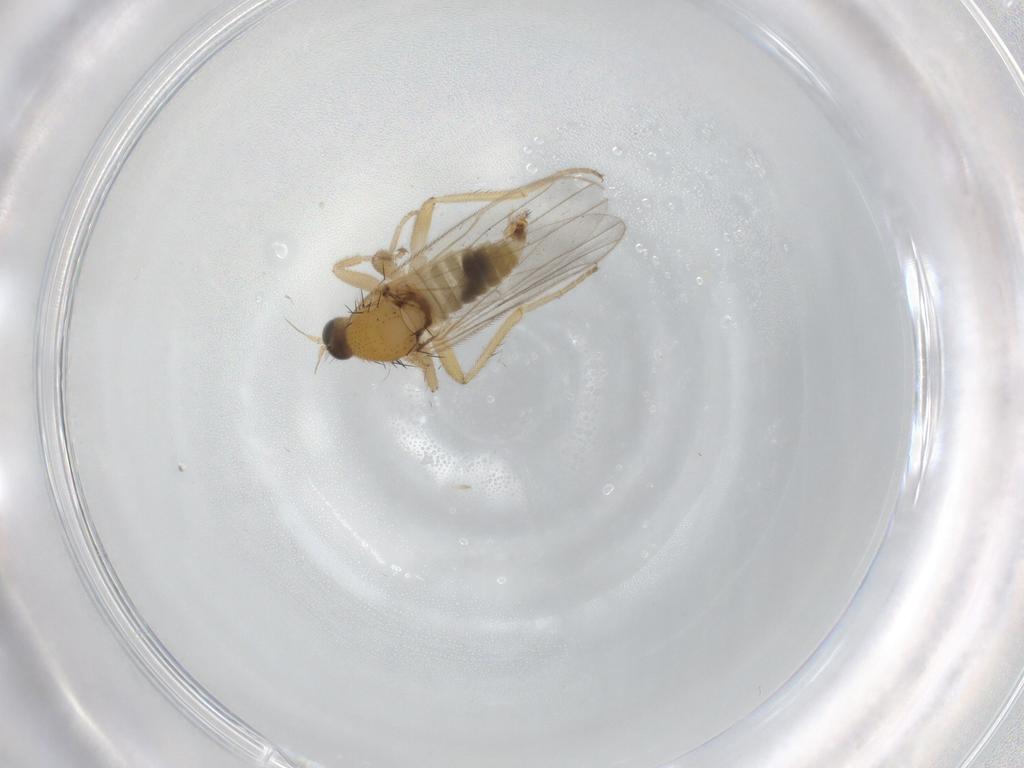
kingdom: Animalia
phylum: Arthropoda
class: Insecta
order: Diptera
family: Hybotidae
